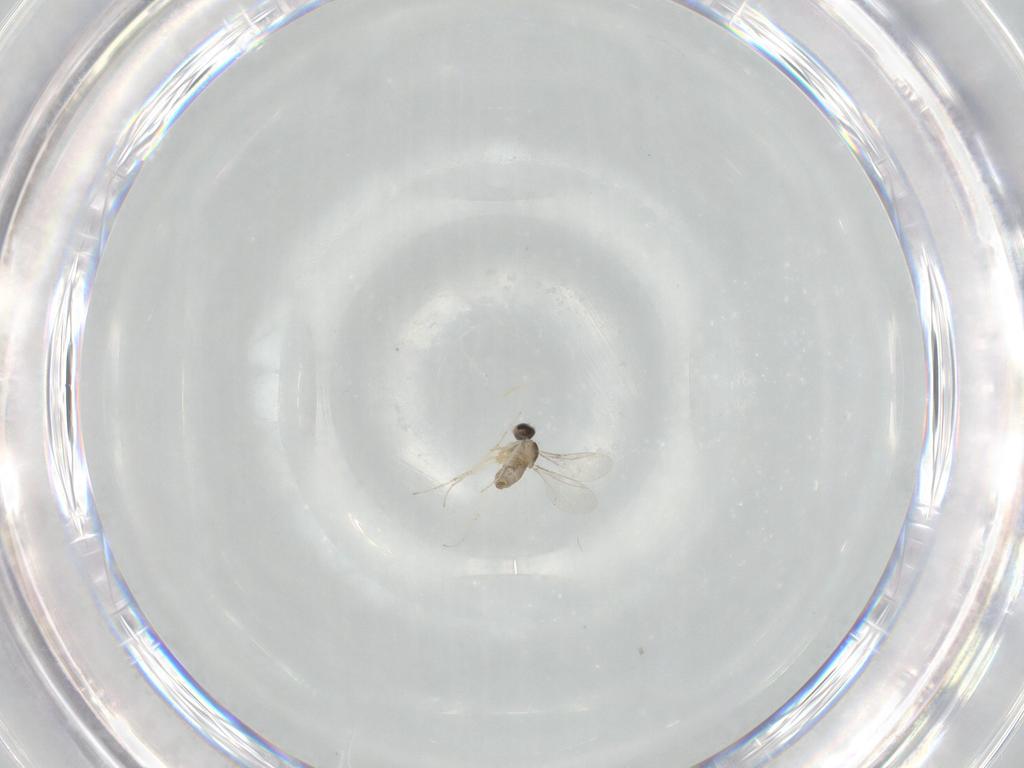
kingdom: Animalia
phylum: Arthropoda
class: Insecta
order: Diptera
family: Cecidomyiidae
